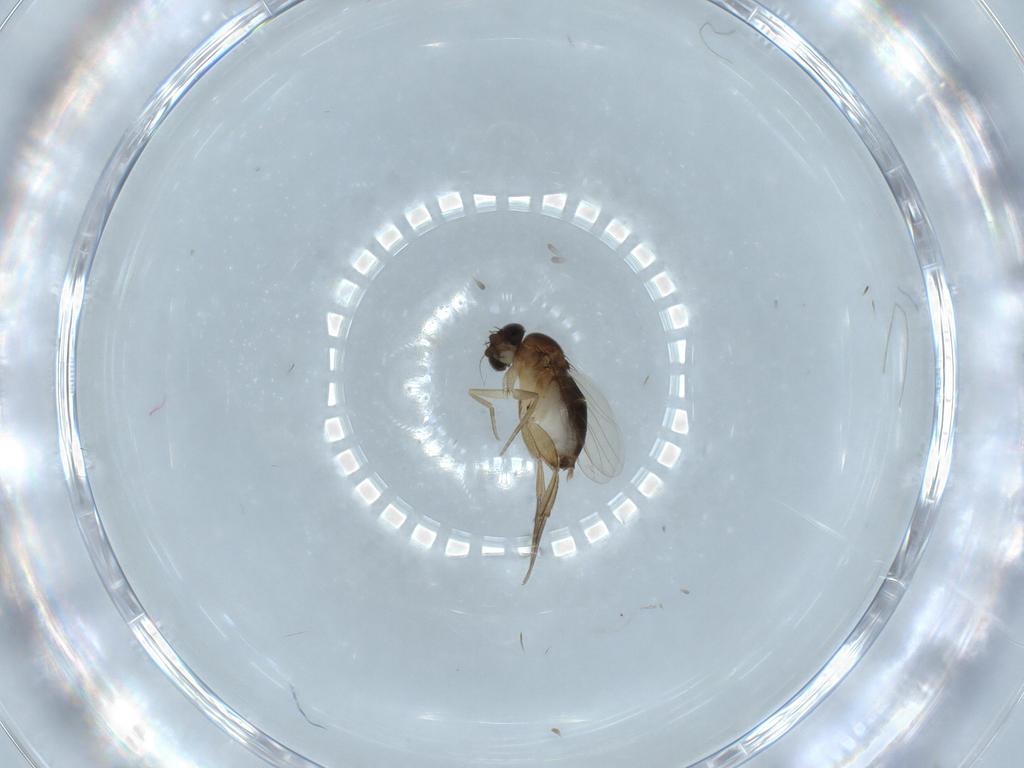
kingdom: Animalia
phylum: Arthropoda
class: Insecta
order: Diptera
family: Phoridae
